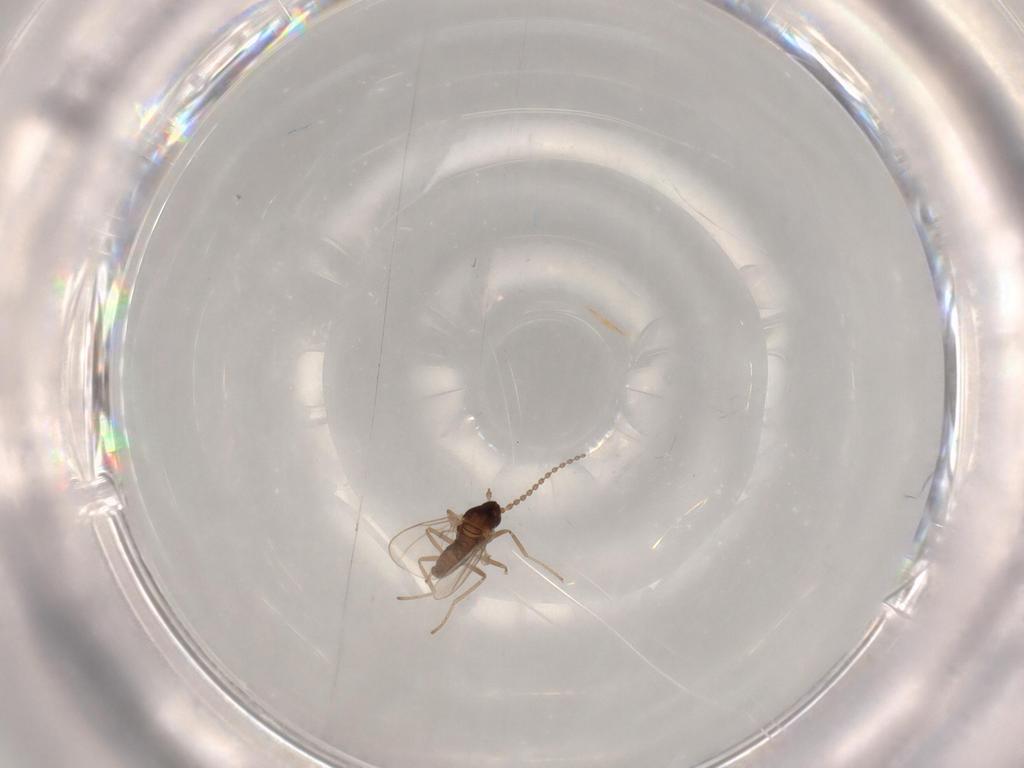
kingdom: Animalia
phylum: Arthropoda
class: Insecta
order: Diptera
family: Cecidomyiidae
